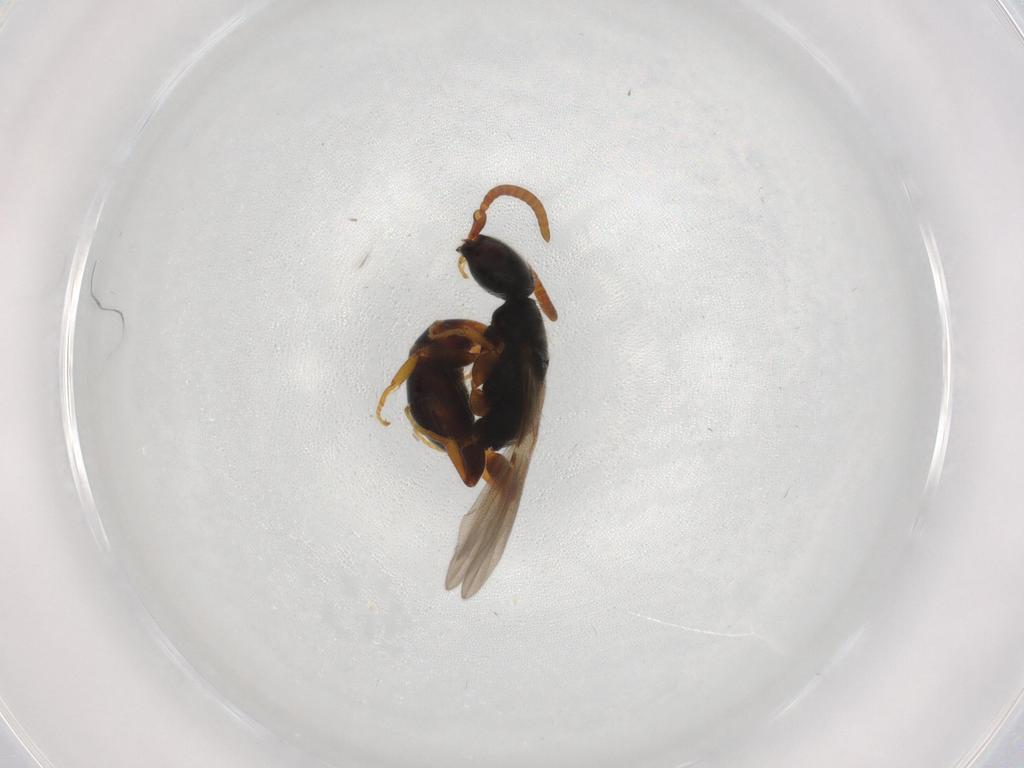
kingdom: Animalia
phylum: Arthropoda
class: Insecta
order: Hymenoptera
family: Bethylidae
